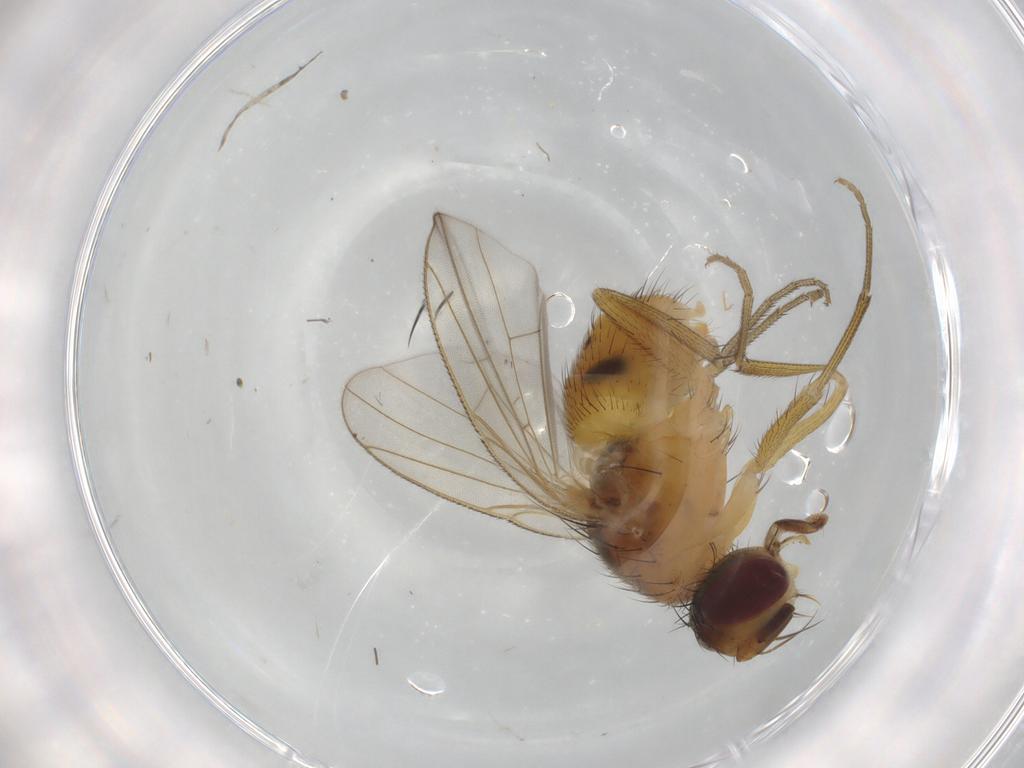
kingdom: Animalia
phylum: Arthropoda
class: Insecta
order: Diptera
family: Muscidae
